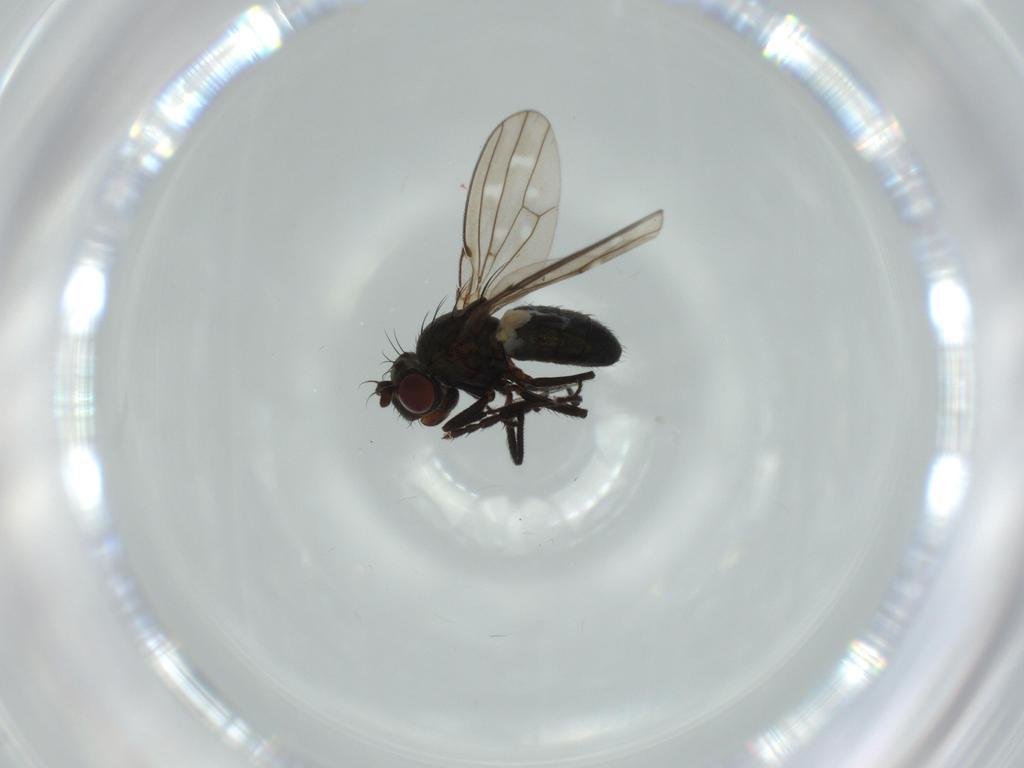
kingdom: Animalia
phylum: Arthropoda
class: Insecta
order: Diptera
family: Ephydridae
